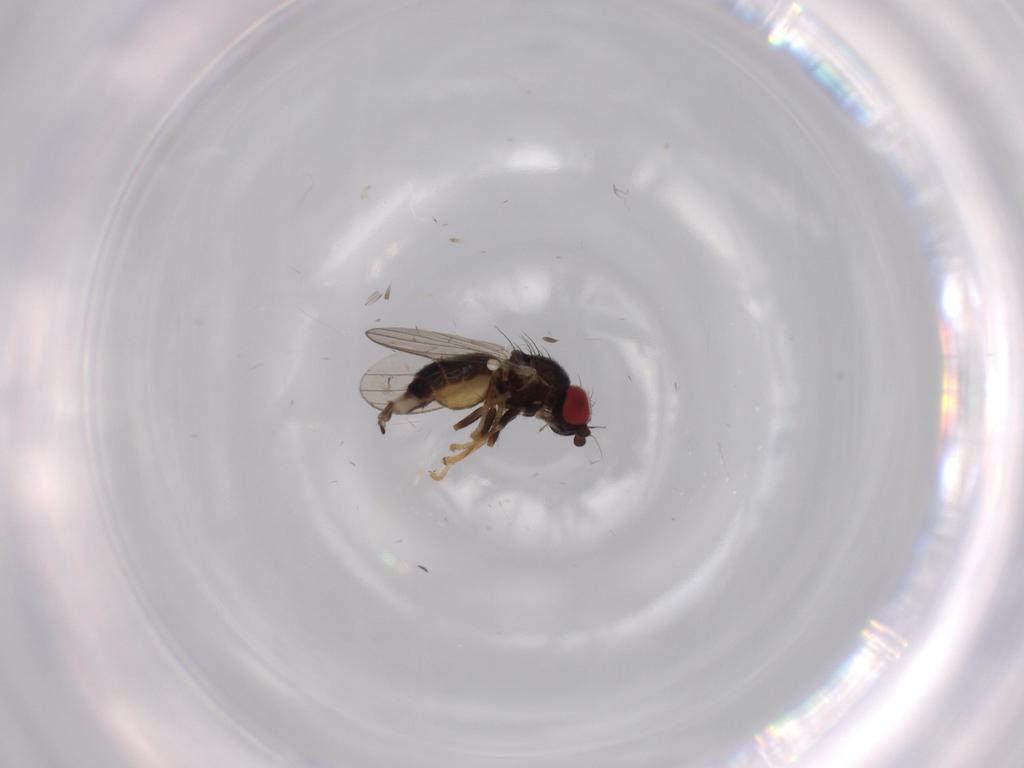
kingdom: Animalia
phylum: Arthropoda
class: Insecta
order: Diptera
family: Chamaemyiidae
